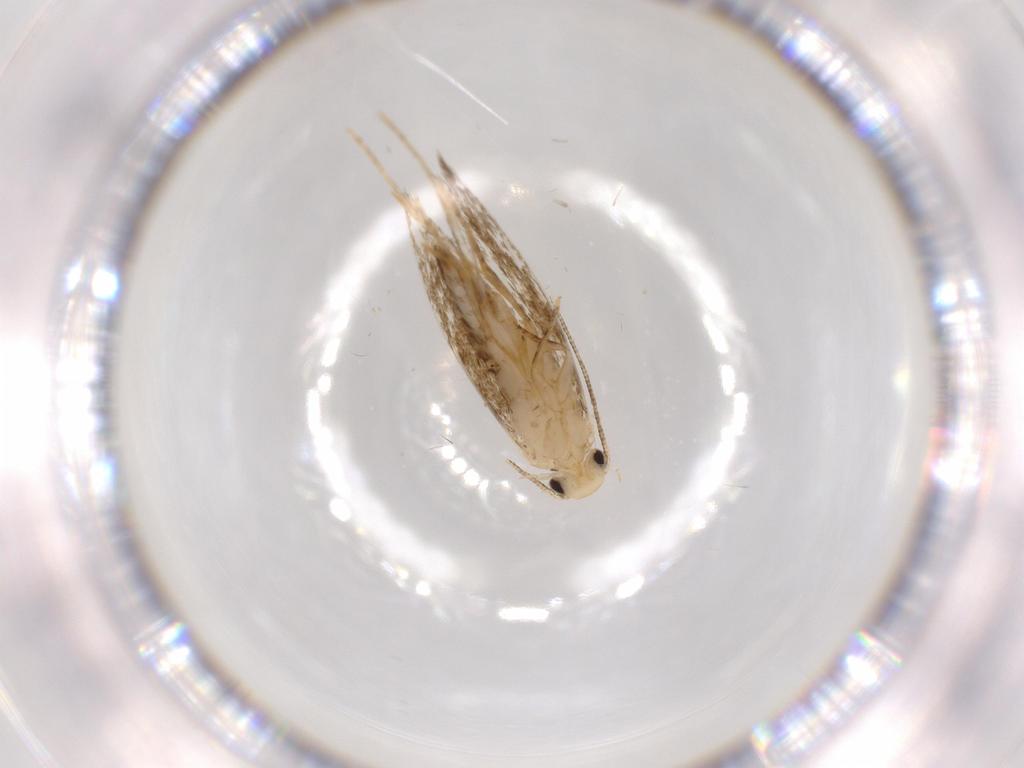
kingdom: Animalia
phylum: Arthropoda
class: Insecta
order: Lepidoptera
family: Tineidae
